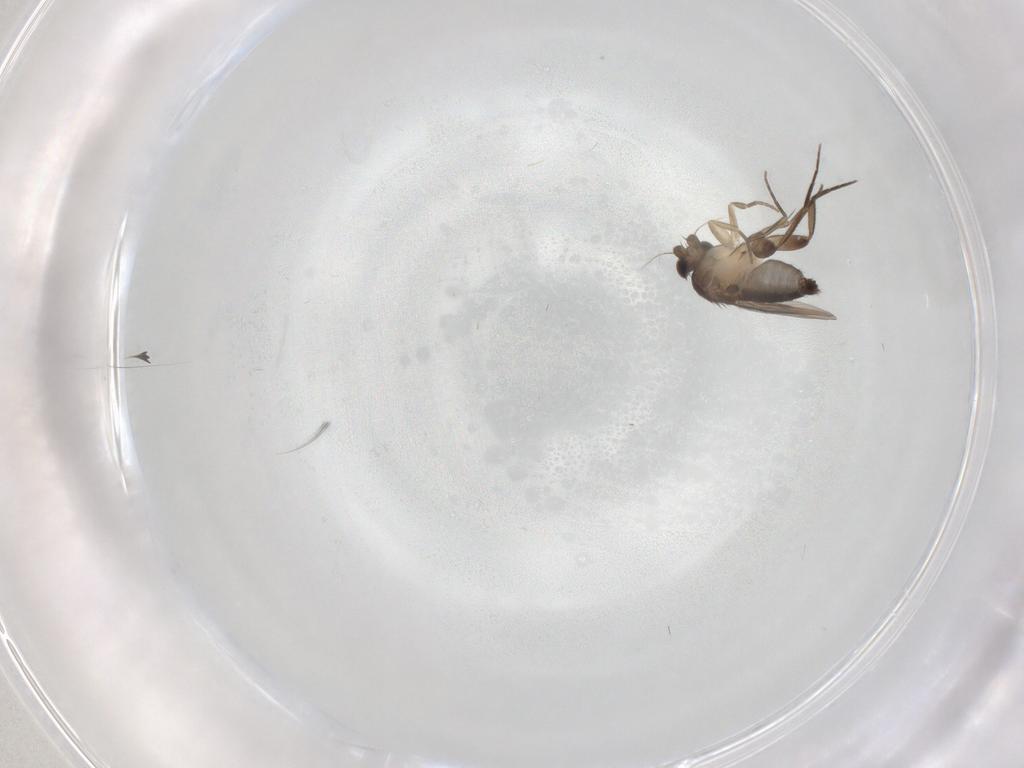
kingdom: Animalia
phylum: Arthropoda
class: Insecta
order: Diptera
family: Phoridae
